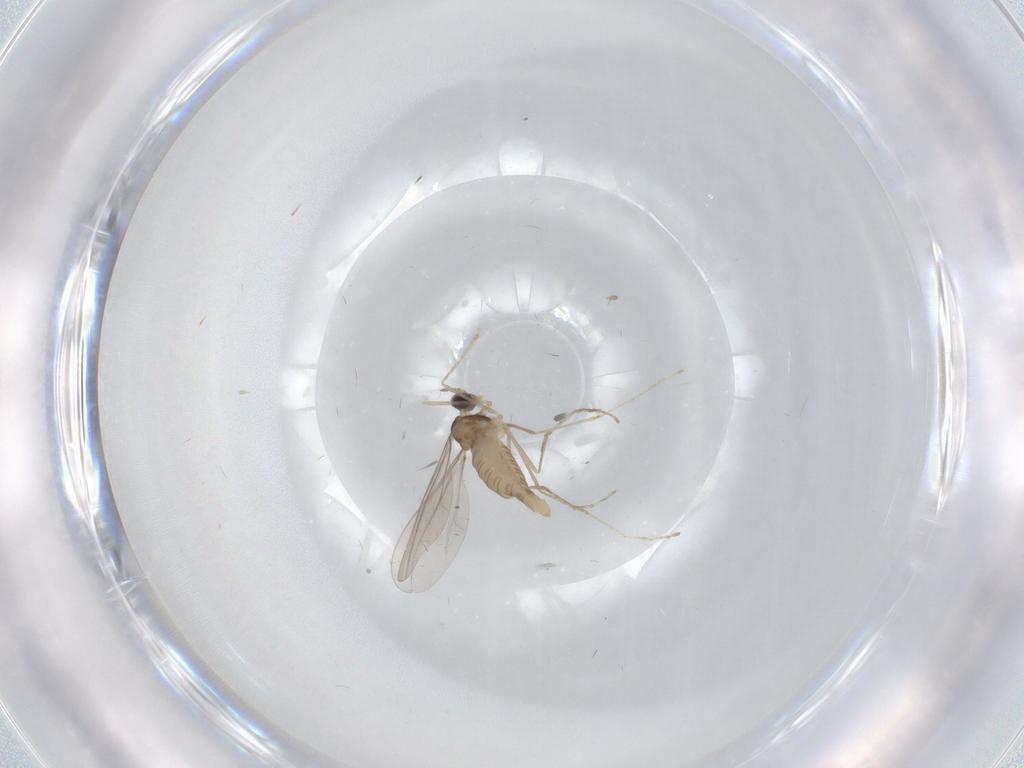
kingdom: Animalia
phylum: Arthropoda
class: Insecta
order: Diptera
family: Cecidomyiidae
